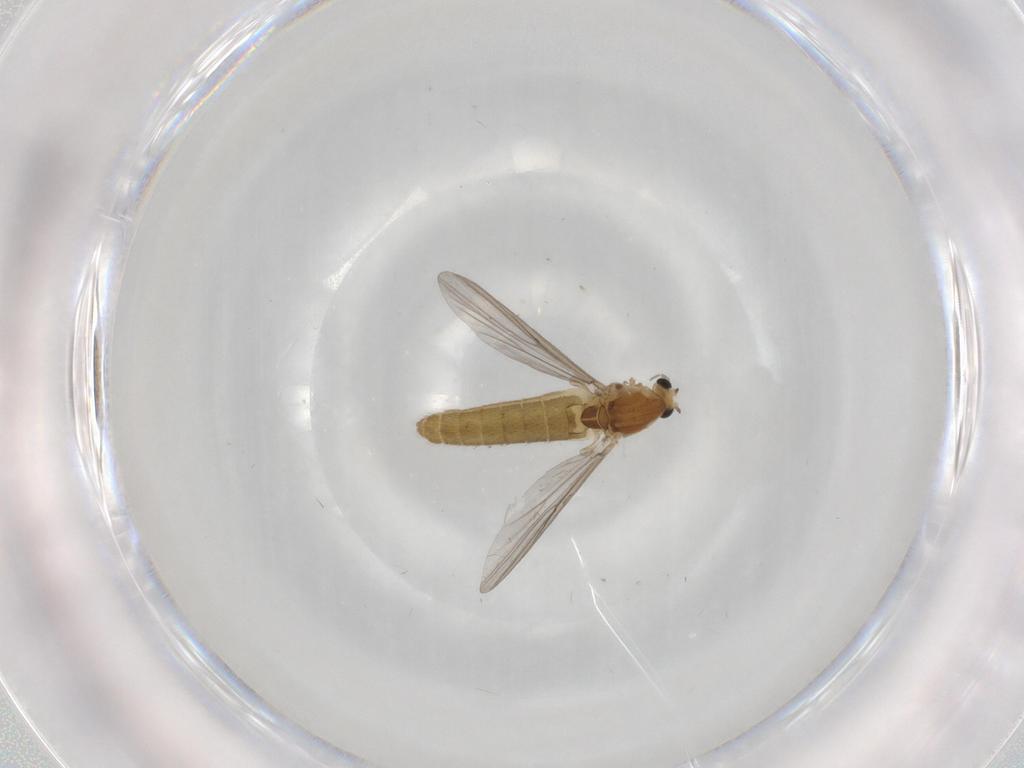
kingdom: Animalia
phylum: Arthropoda
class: Insecta
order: Diptera
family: Chironomidae
